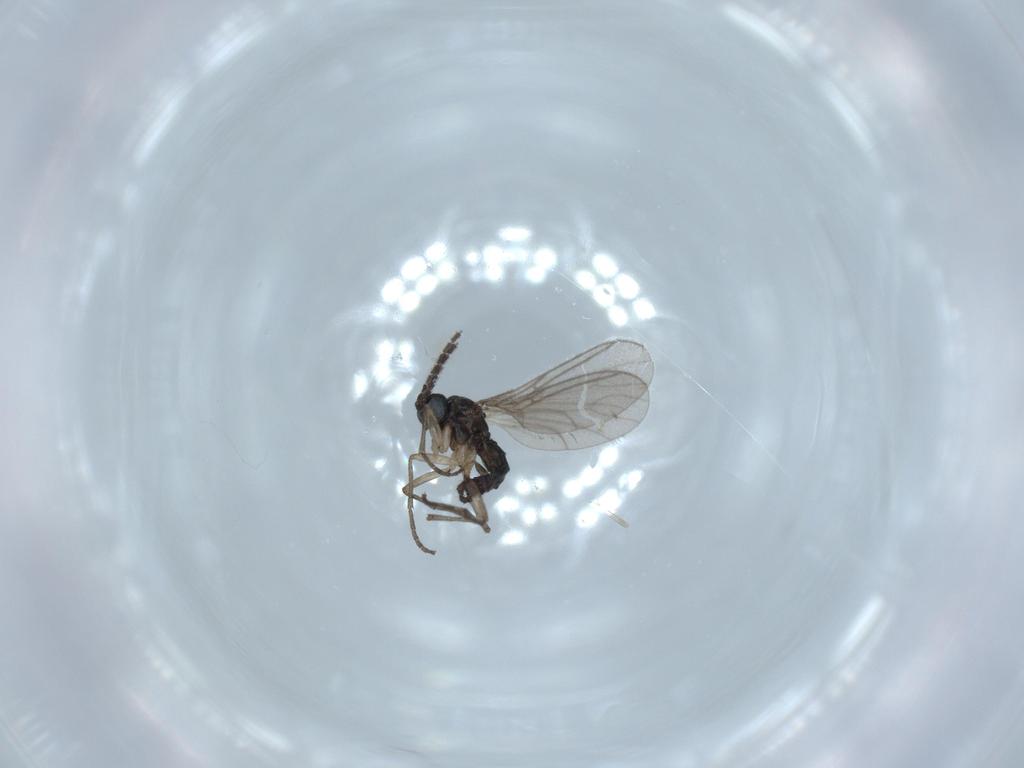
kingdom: Animalia
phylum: Arthropoda
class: Insecta
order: Diptera
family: Sciaridae
